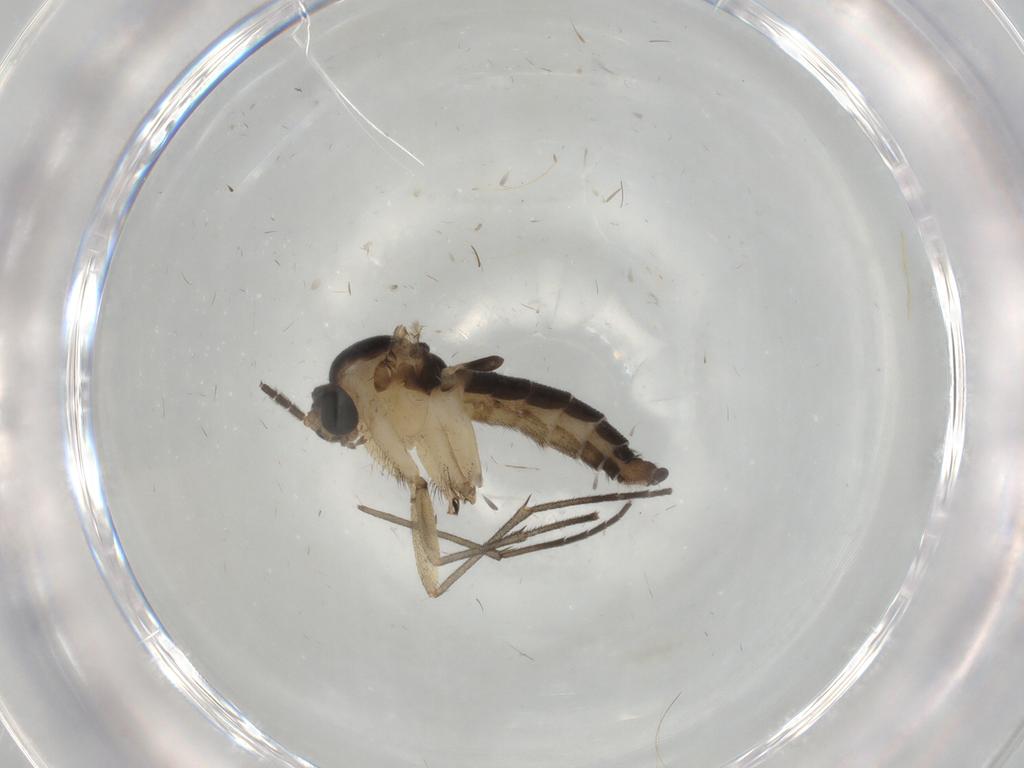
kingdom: Animalia
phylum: Arthropoda
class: Insecta
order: Diptera
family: Sciaridae
